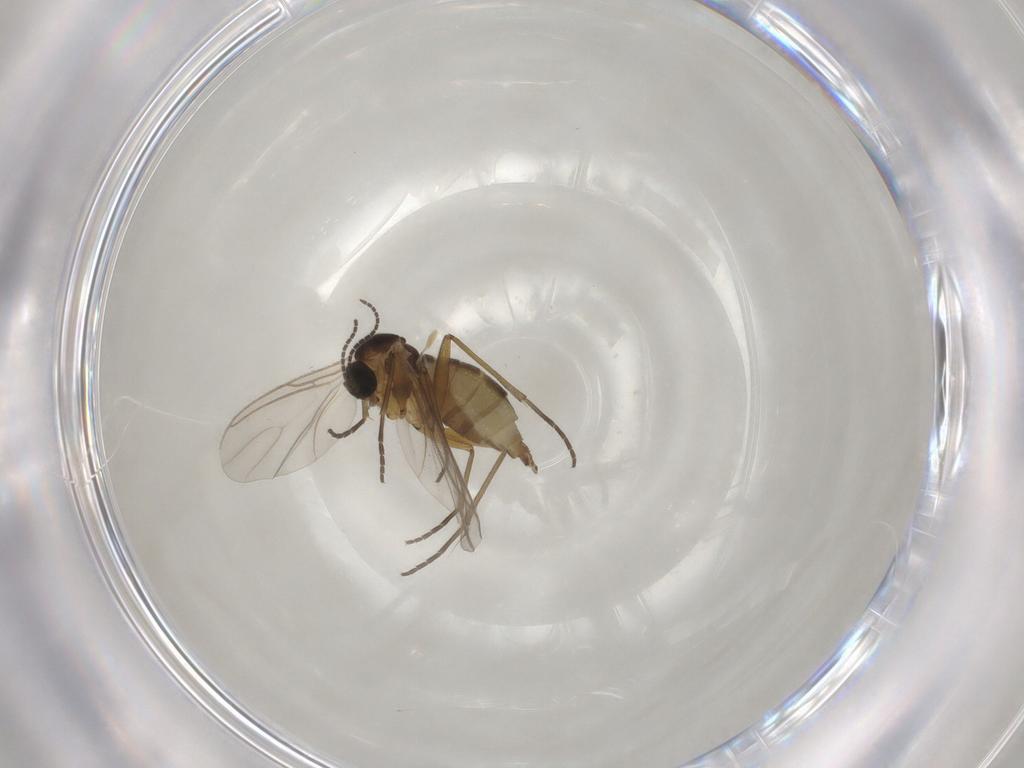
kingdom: Animalia
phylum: Arthropoda
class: Insecta
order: Diptera
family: Sciaridae
